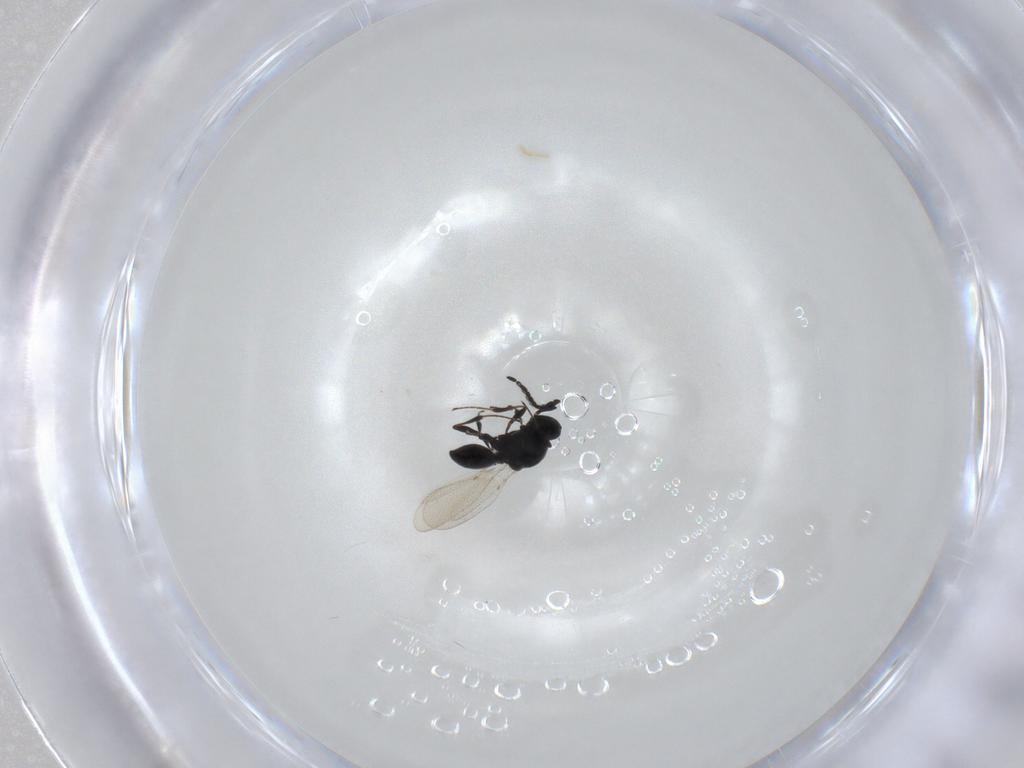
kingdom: Animalia
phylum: Arthropoda
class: Insecta
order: Hymenoptera
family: Platygastridae
